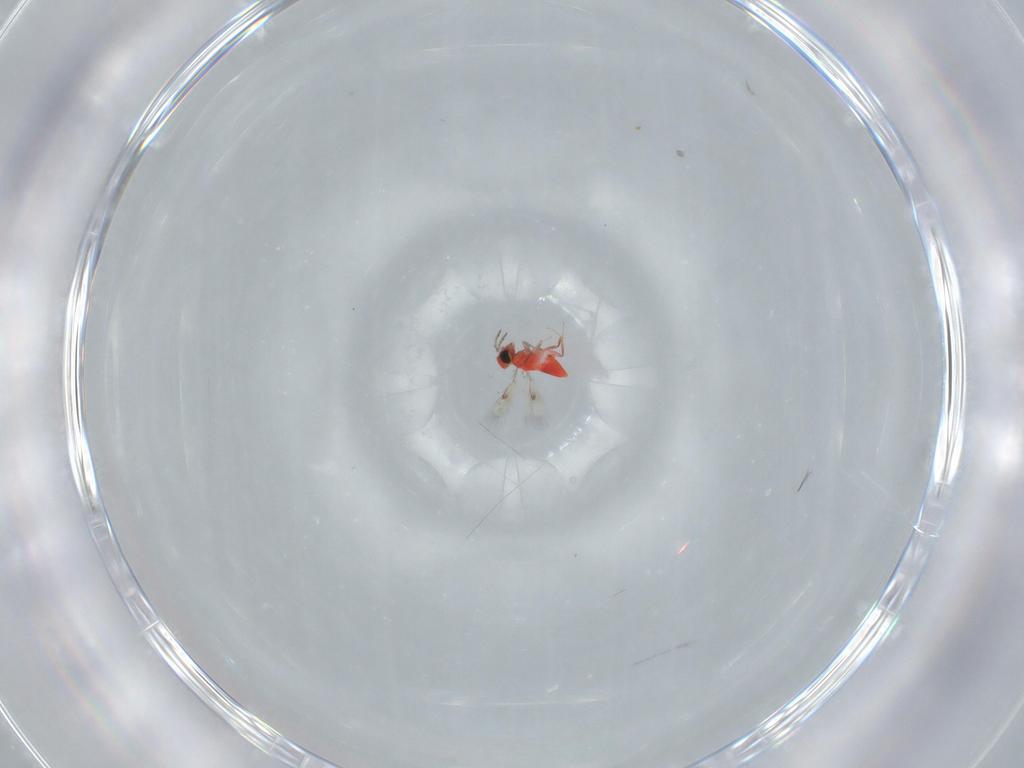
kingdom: Animalia
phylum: Arthropoda
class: Insecta
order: Hymenoptera
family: Trichogrammatidae
